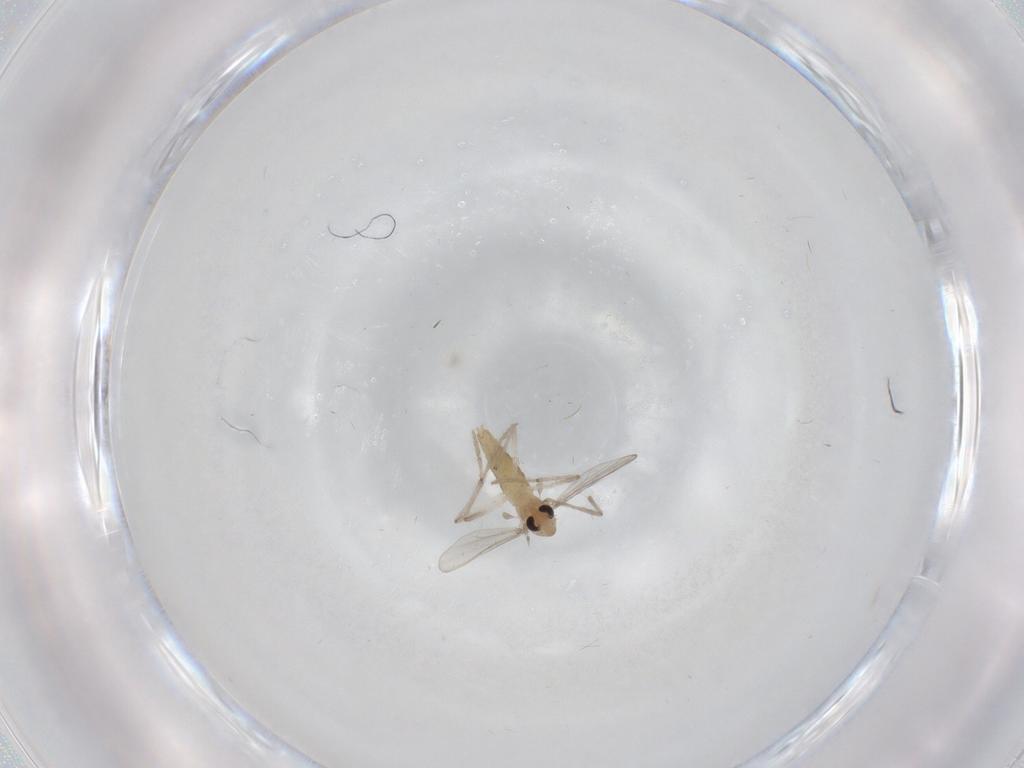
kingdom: Animalia
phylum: Arthropoda
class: Insecta
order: Diptera
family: Chironomidae
